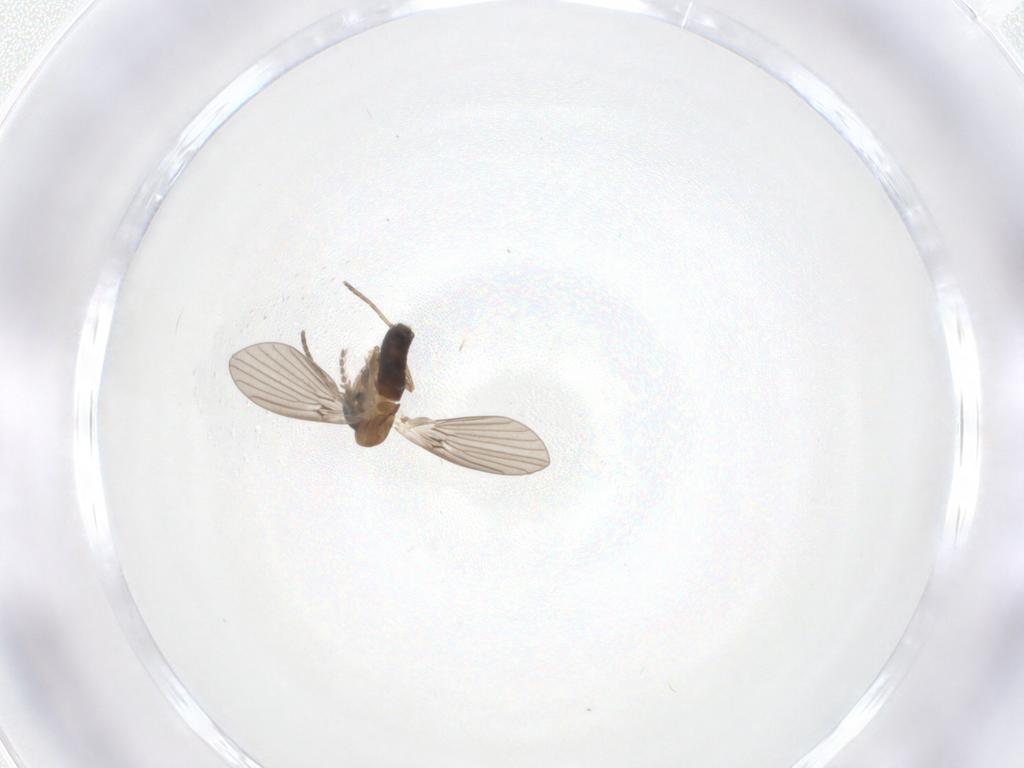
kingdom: Animalia
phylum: Arthropoda
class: Insecta
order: Diptera
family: Psychodidae
